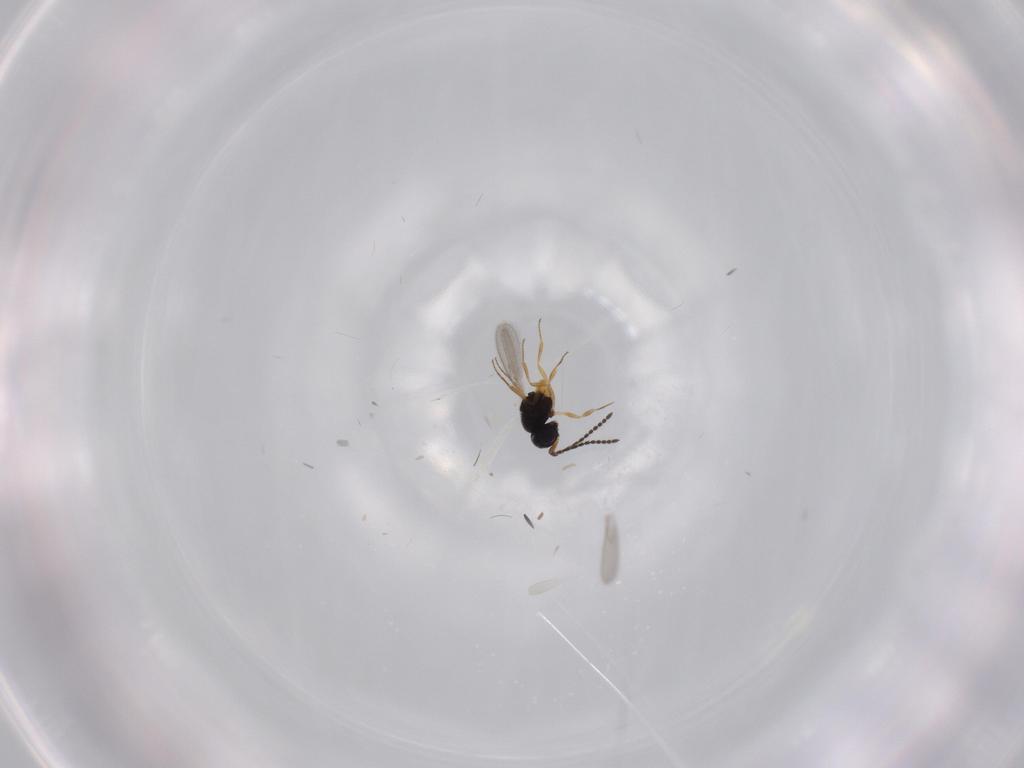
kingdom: Animalia
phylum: Arthropoda
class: Insecta
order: Hymenoptera
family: Scelionidae
